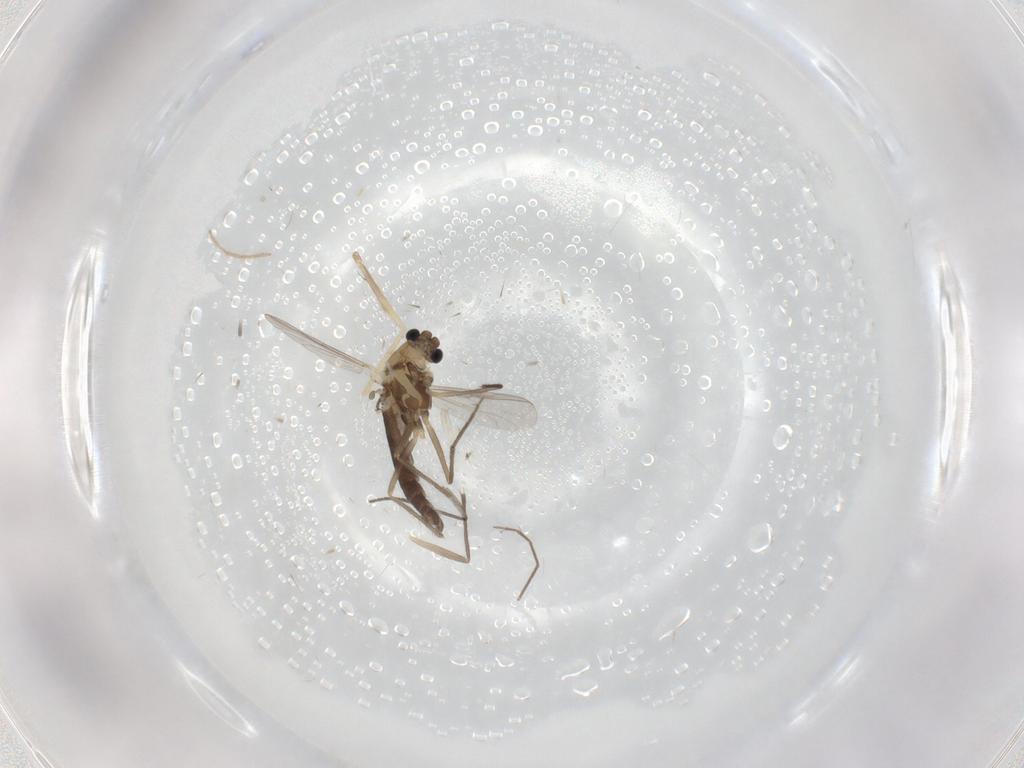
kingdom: Animalia
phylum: Arthropoda
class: Insecta
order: Diptera
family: Chironomidae
